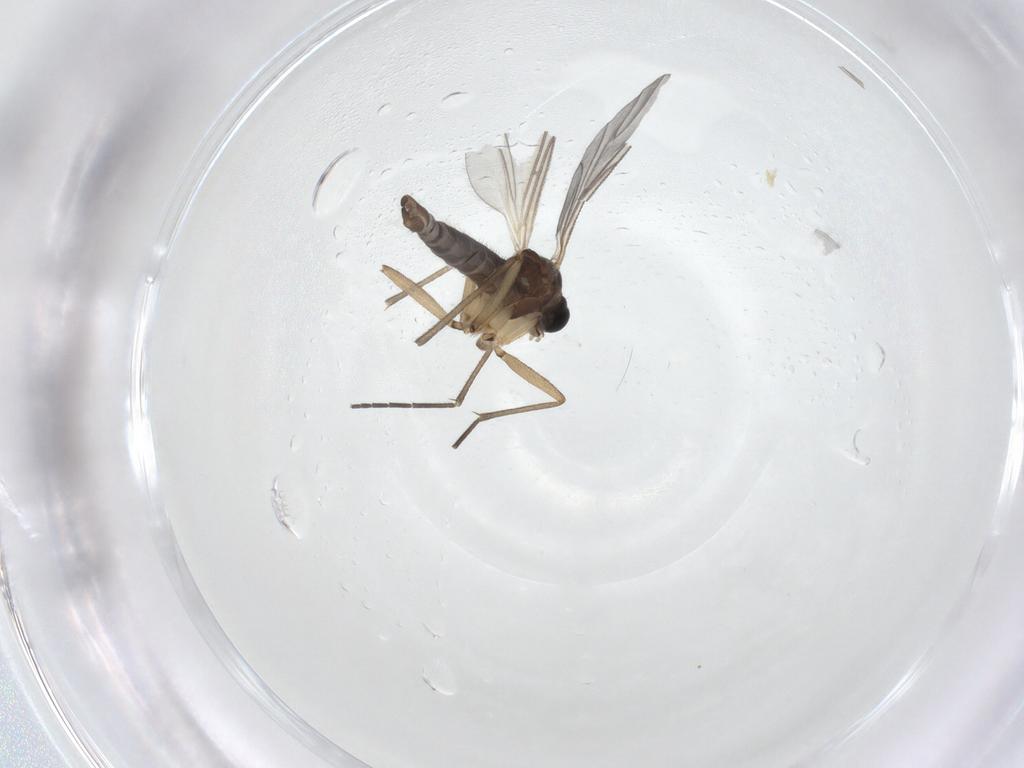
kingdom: Animalia
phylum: Arthropoda
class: Insecta
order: Diptera
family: Sciaridae
